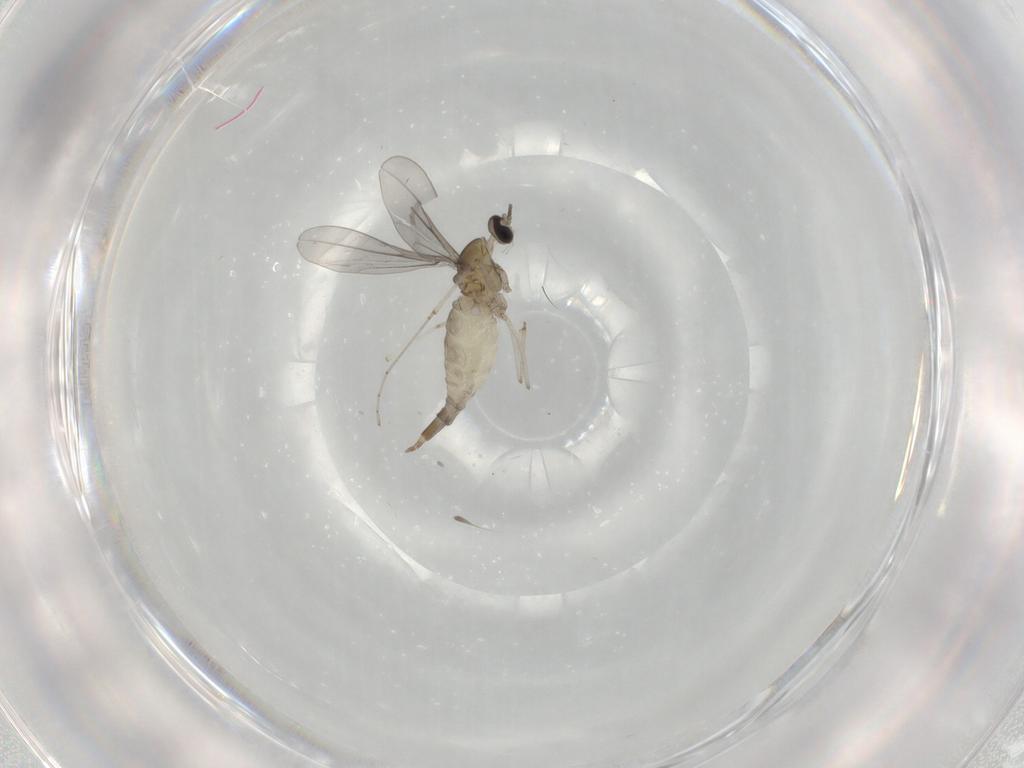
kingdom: Animalia
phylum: Arthropoda
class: Insecta
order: Diptera
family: Cecidomyiidae
